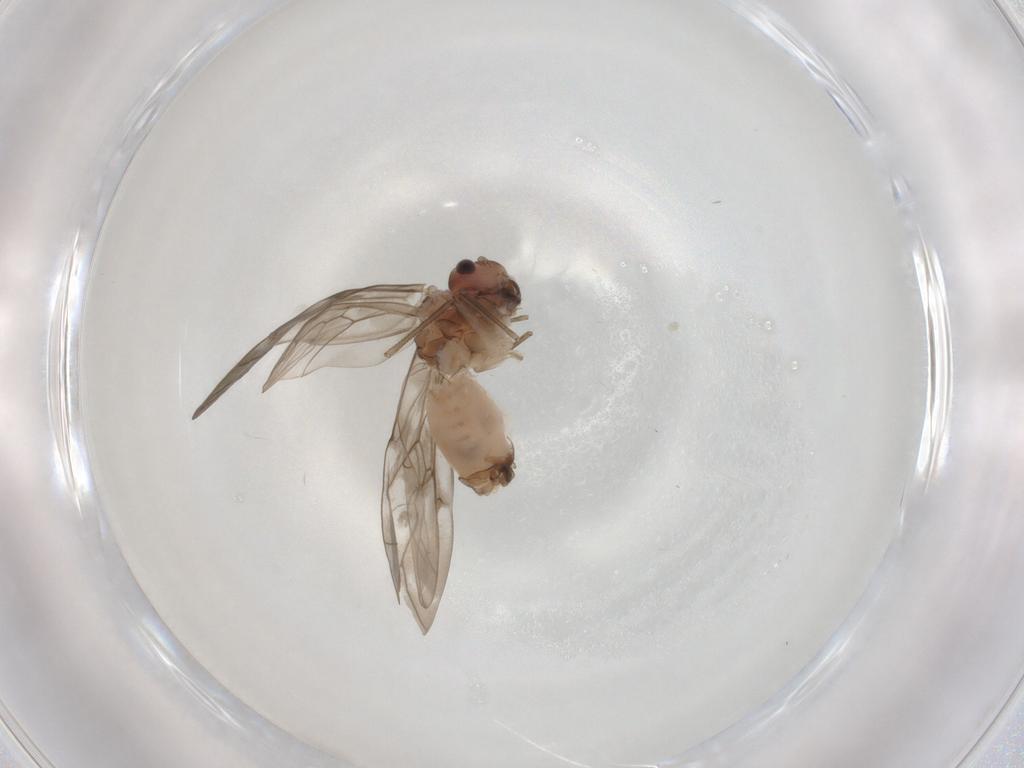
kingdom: Animalia
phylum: Arthropoda
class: Insecta
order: Psocodea
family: Peripsocidae
